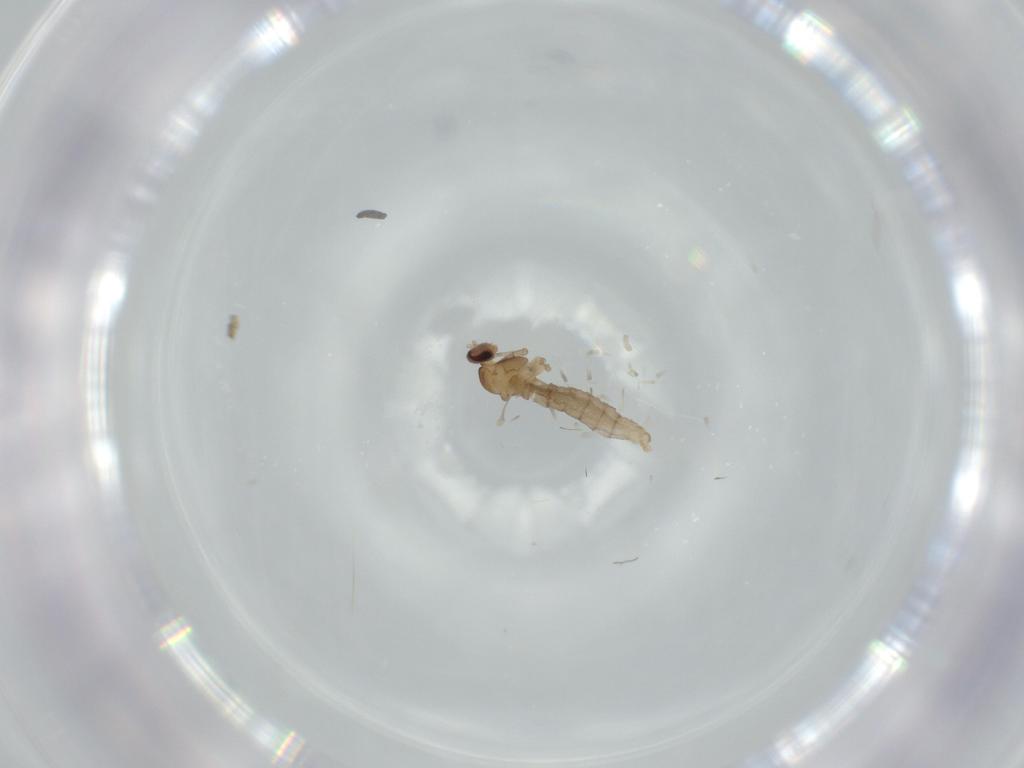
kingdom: Animalia
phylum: Arthropoda
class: Insecta
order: Diptera
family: Cecidomyiidae
